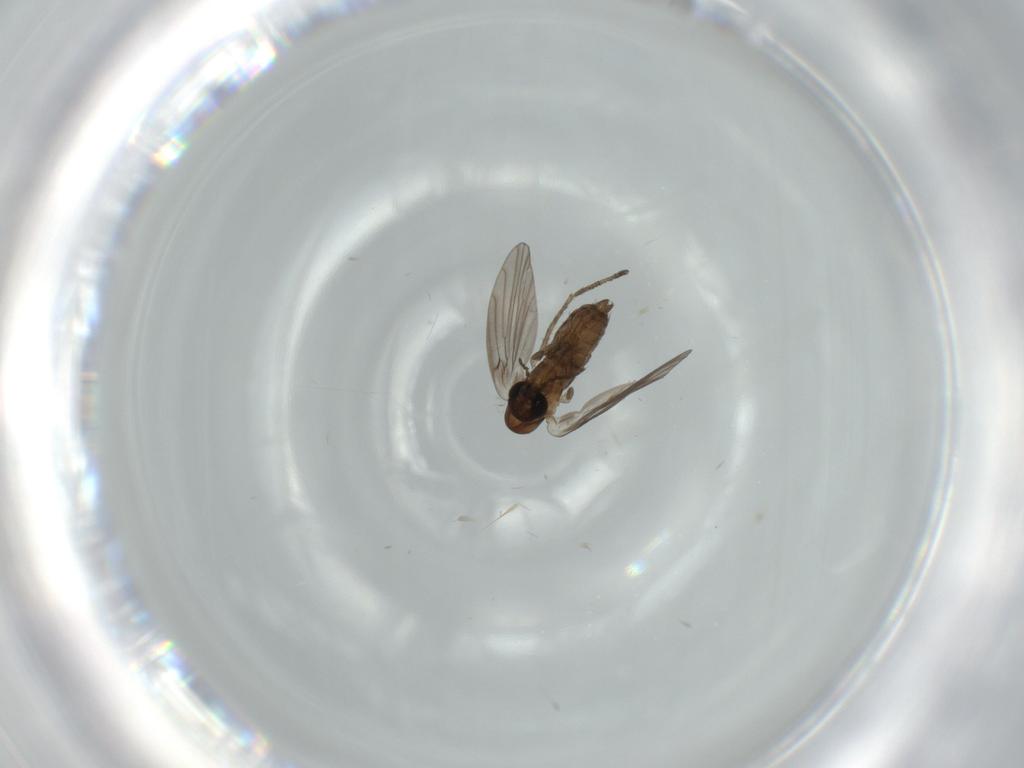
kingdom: Animalia
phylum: Arthropoda
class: Insecta
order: Diptera
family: Psychodidae
